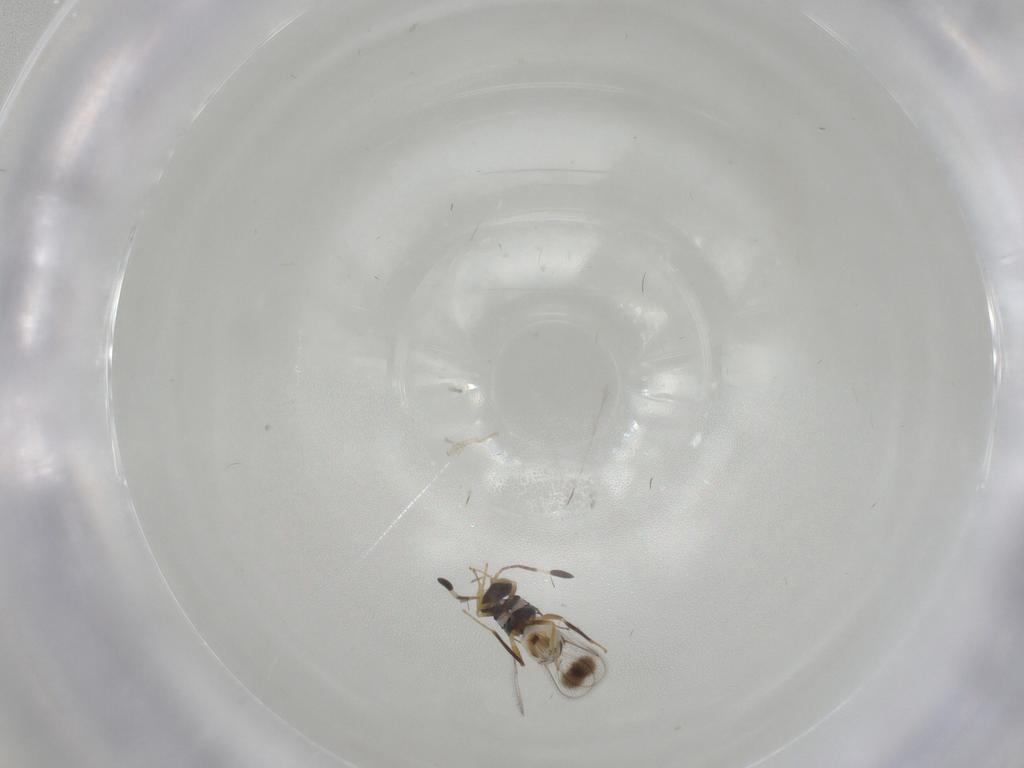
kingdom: Animalia
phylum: Arthropoda
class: Insecta
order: Hymenoptera
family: Mymaridae
